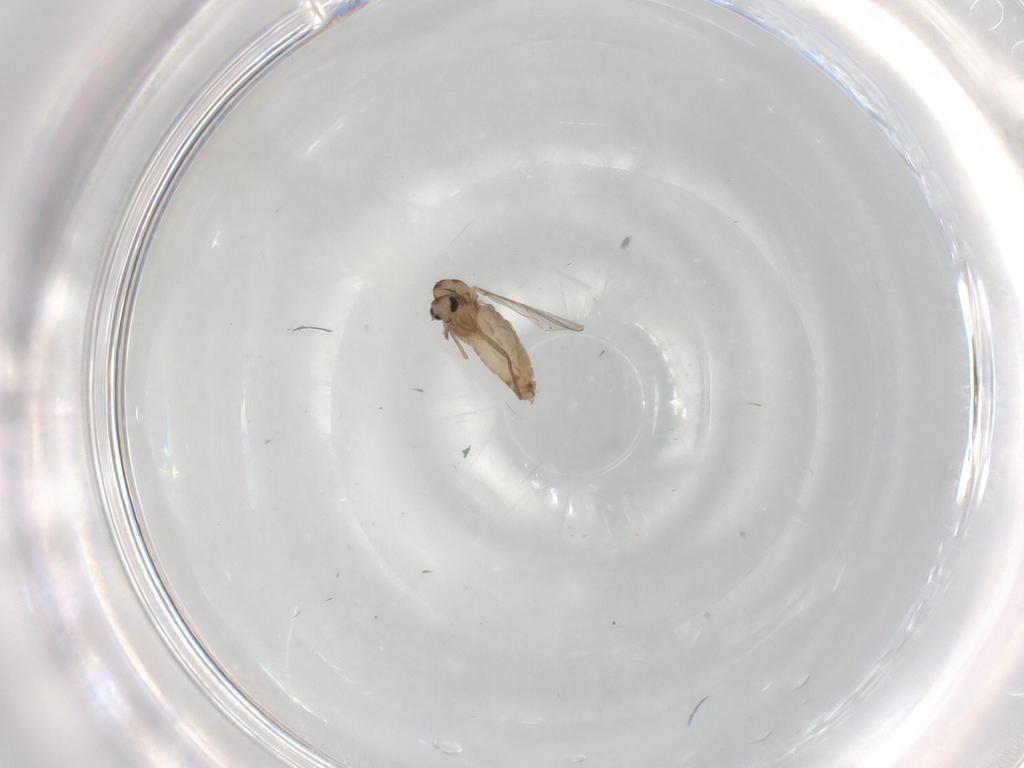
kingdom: Animalia
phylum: Arthropoda
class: Insecta
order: Diptera
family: Chironomidae
